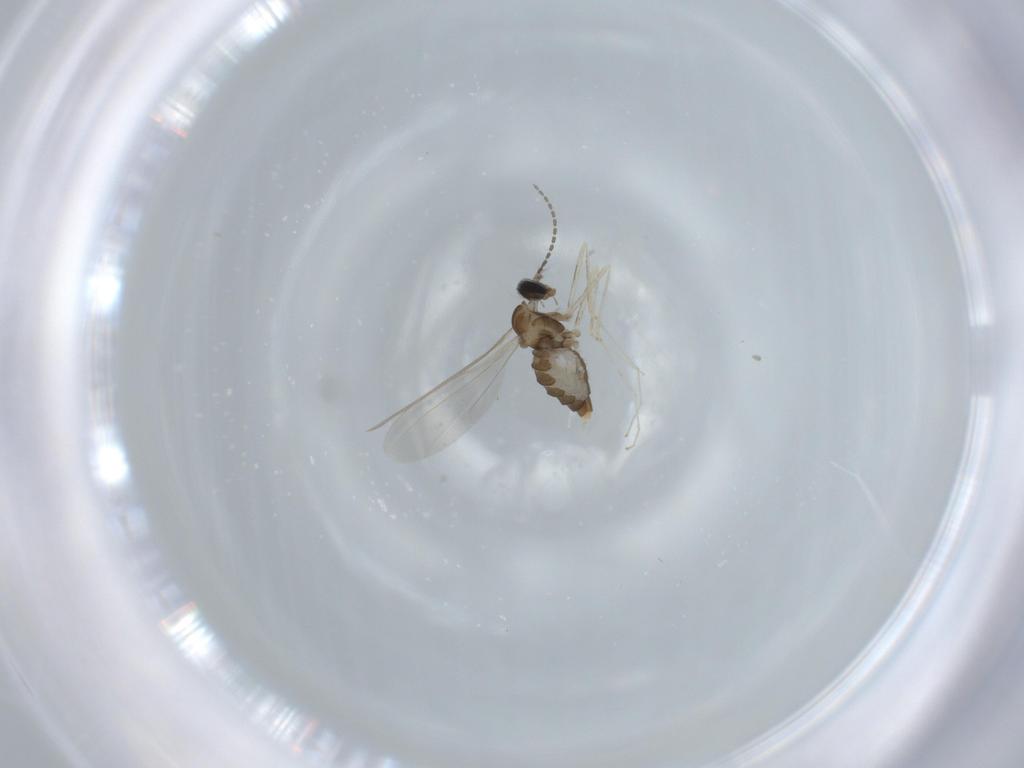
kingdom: Animalia
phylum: Arthropoda
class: Insecta
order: Diptera
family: Cecidomyiidae
